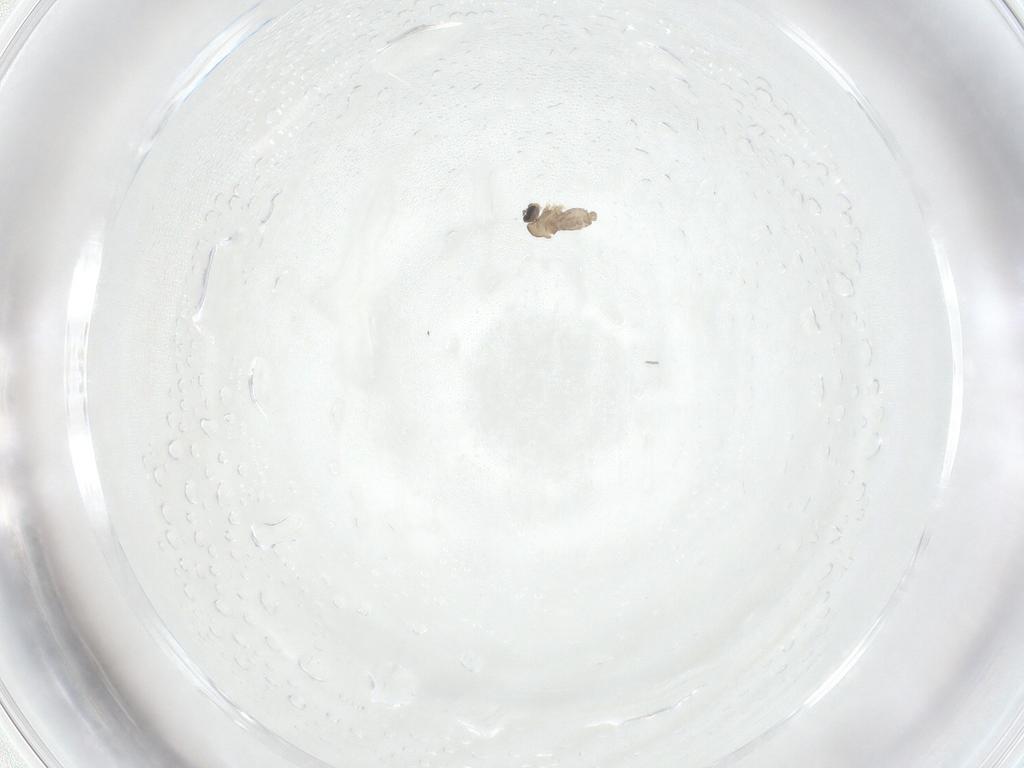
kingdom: Animalia
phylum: Arthropoda
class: Insecta
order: Diptera
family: Cecidomyiidae
